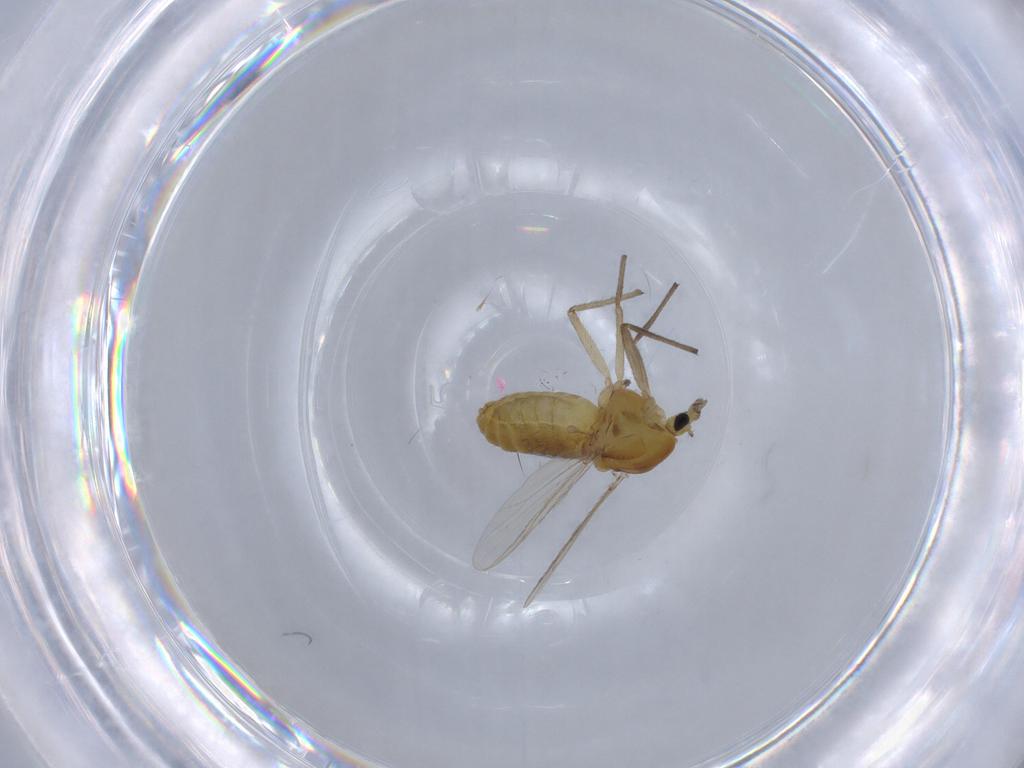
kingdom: Animalia
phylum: Arthropoda
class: Insecta
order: Diptera
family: Chironomidae
